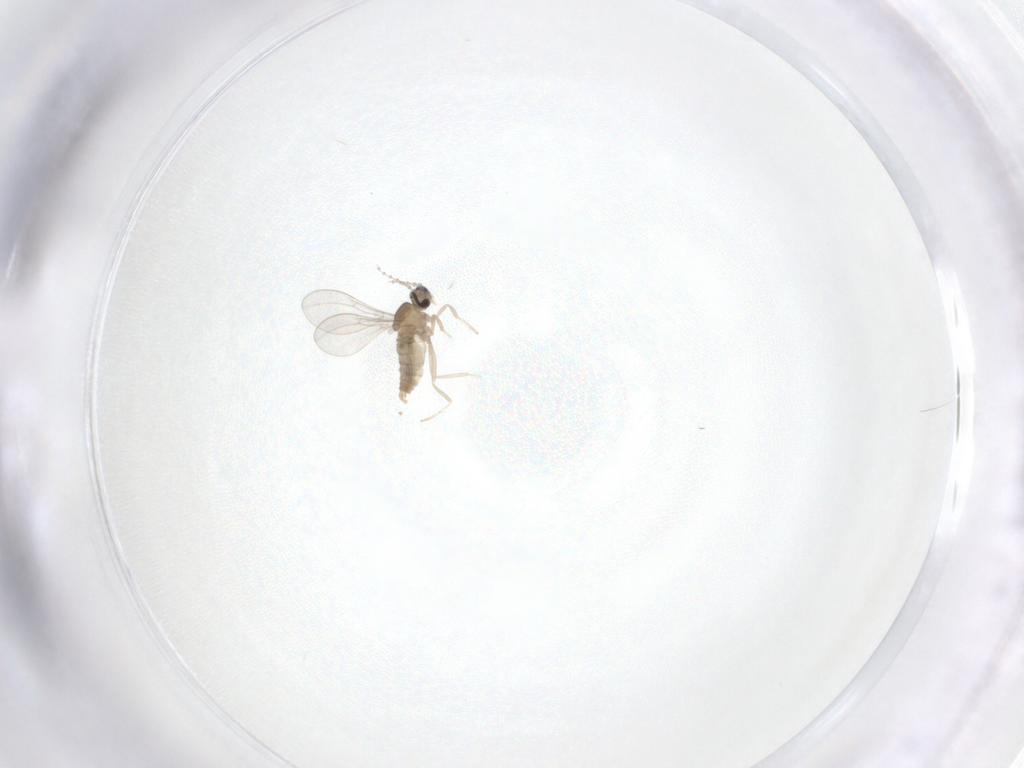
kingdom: Animalia
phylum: Arthropoda
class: Insecta
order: Diptera
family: Cecidomyiidae
